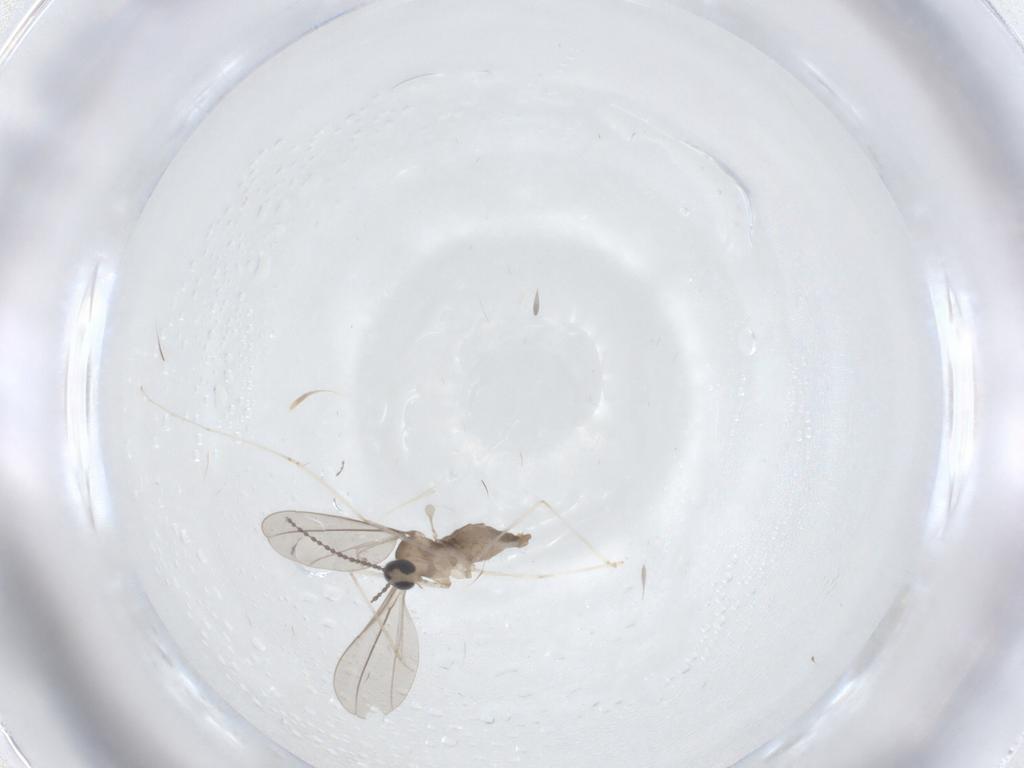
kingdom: Animalia
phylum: Arthropoda
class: Insecta
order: Diptera
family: Chironomidae
